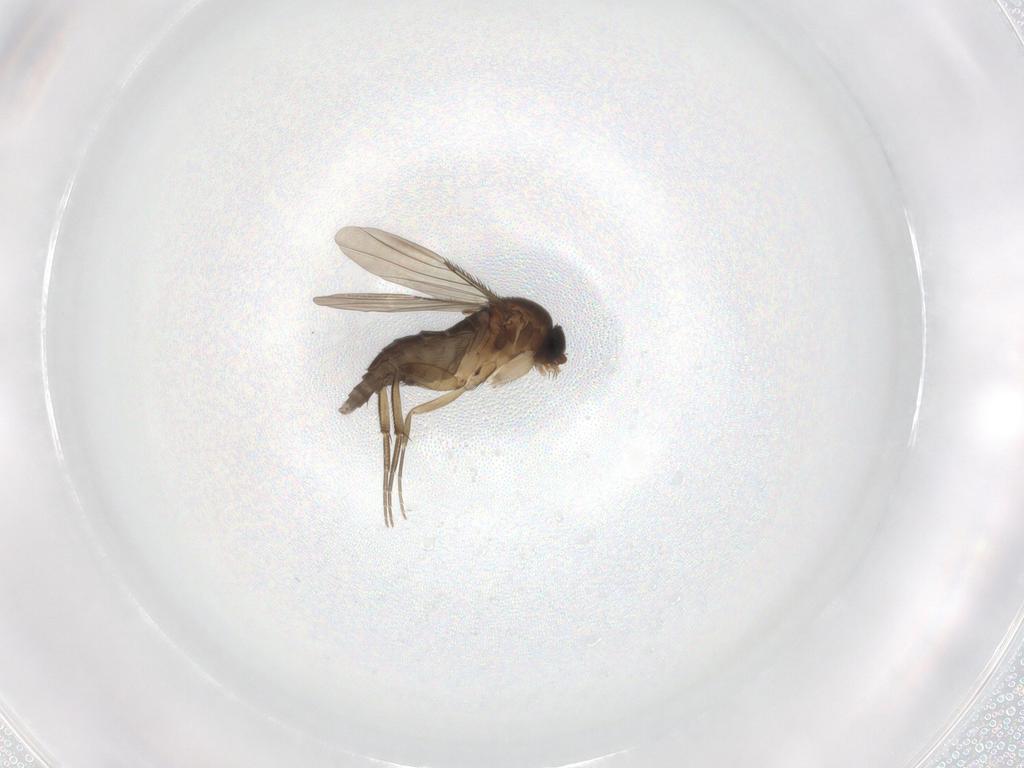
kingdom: Animalia
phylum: Arthropoda
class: Insecta
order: Diptera
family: Phoridae
